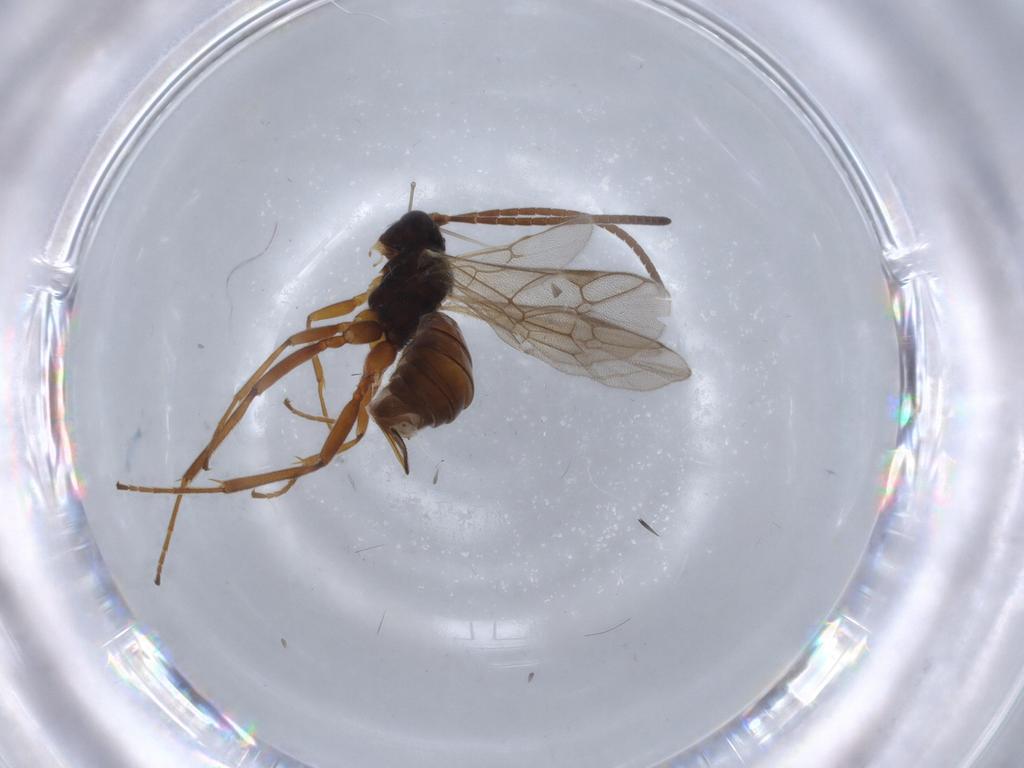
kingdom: Animalia
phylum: Arthropoda
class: Insecta
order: Hymenoptera
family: Ichneumonidae
